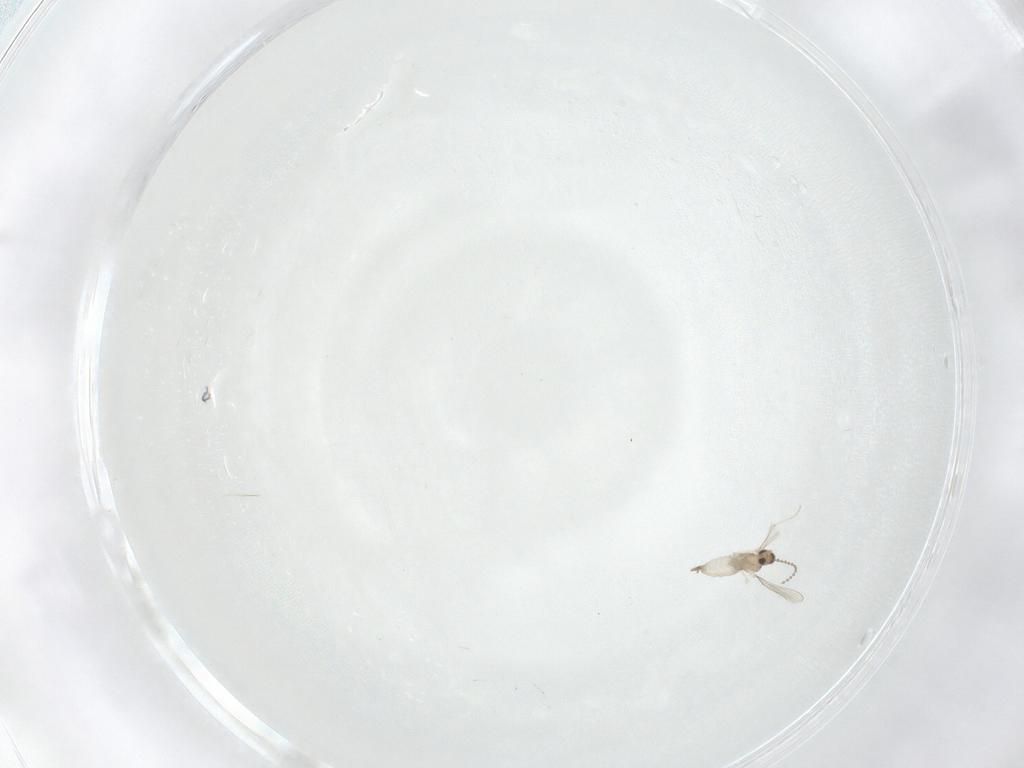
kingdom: Animalia
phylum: Arthropoda
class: Insecta
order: Diptera
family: Cecidomyiidae
